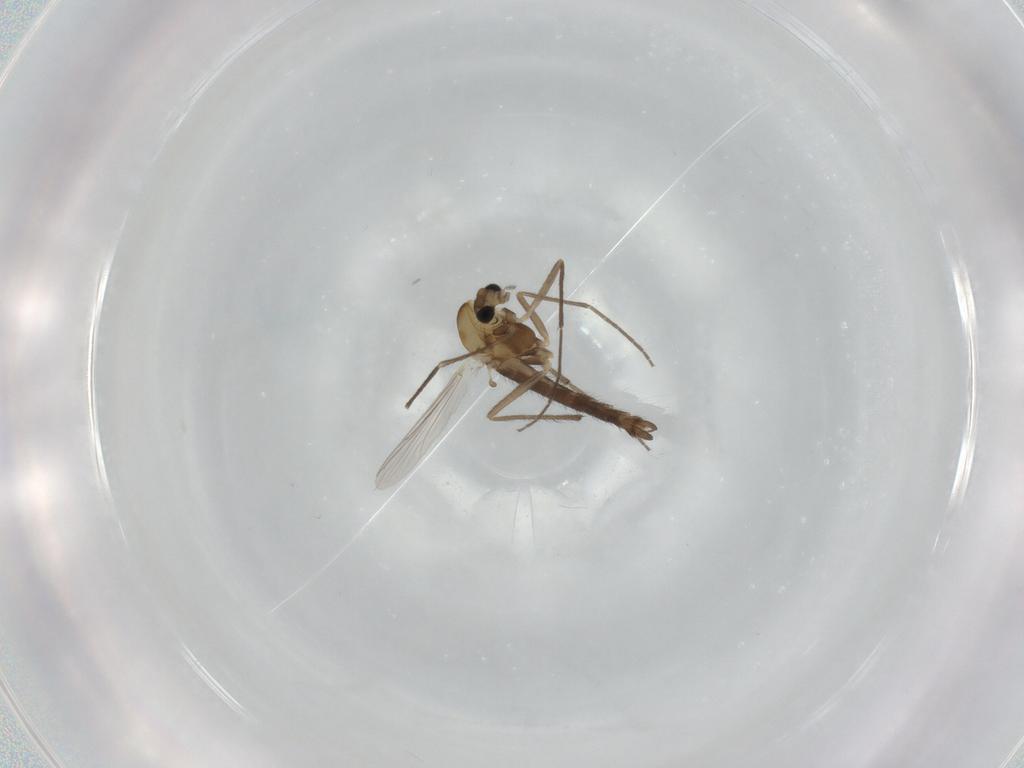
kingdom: Animalia
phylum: Arthropoda
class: Insecta
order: Diptera
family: Chironomidae
